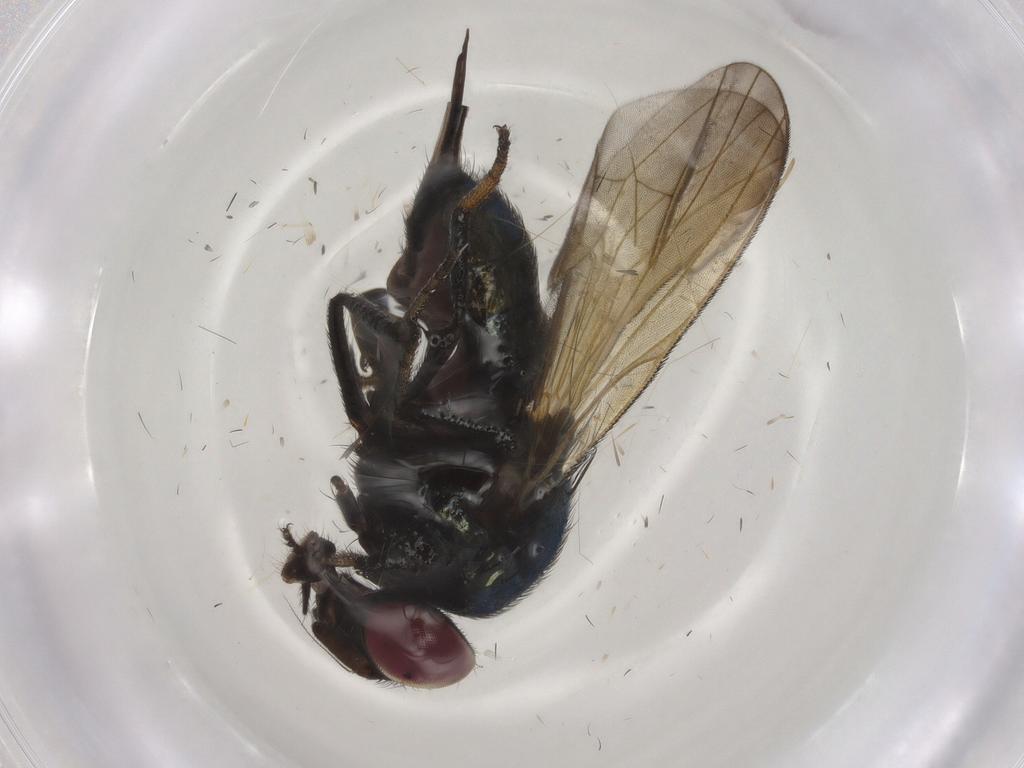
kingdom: Animalia
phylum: Arthropoda
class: Insecta
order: Diptera
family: Lonchaeidae
